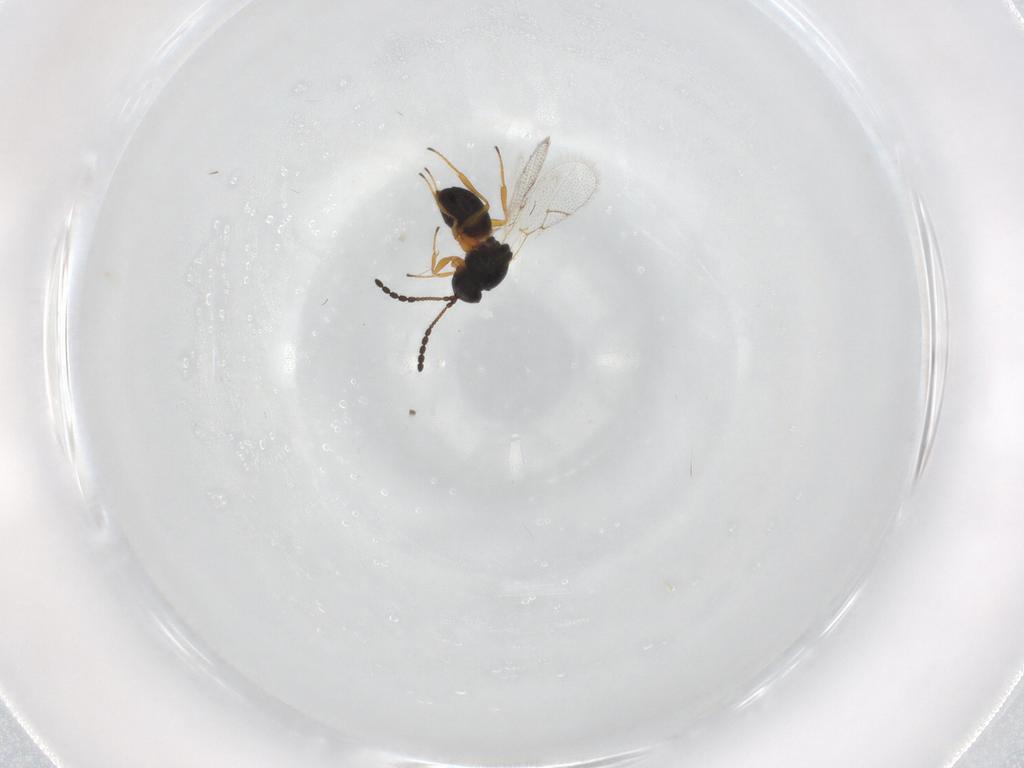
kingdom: Animalia
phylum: Arthropoda
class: Insecta
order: Hymenoptera
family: Figitidae
